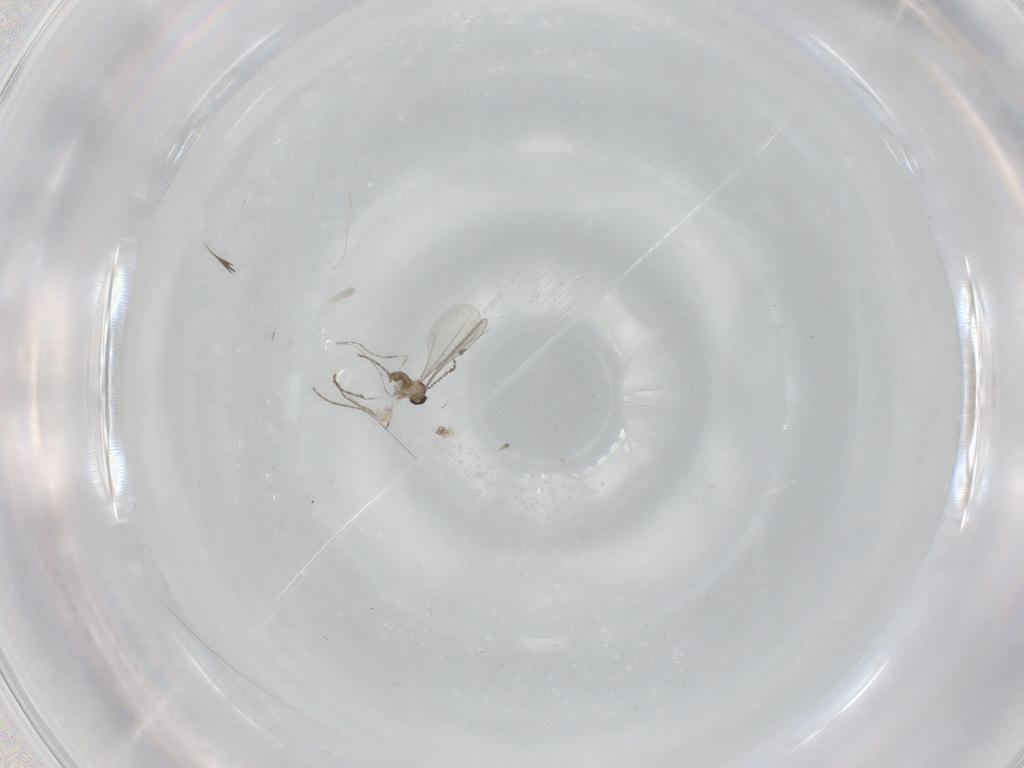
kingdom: Animalia
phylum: Arthropoda
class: Insecta
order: Diptera
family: Cecidomyiidae
